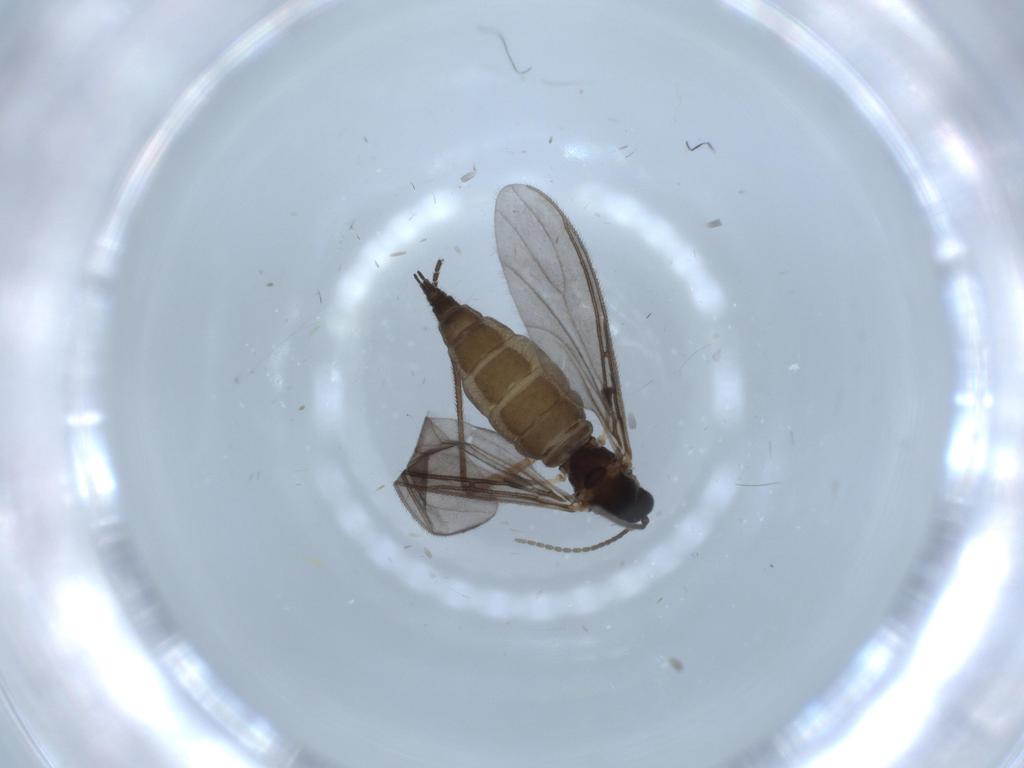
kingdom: Animalia
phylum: Arthropoda
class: Insecta
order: Diptera
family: Sciaridae
